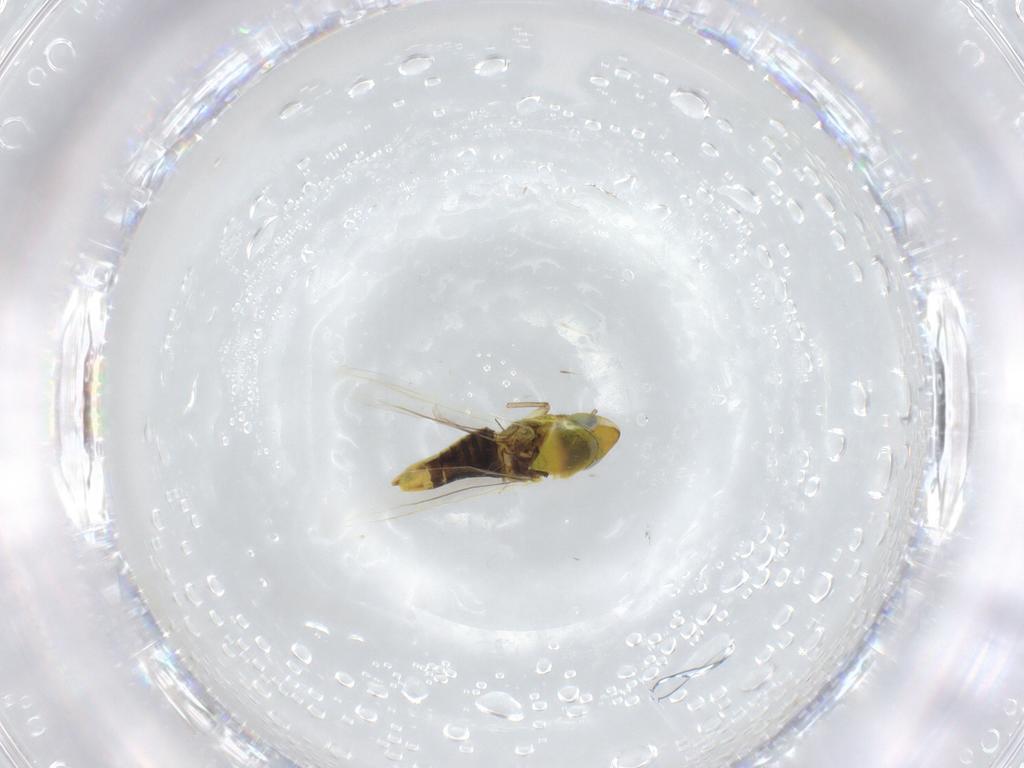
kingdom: Animalia
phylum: Arthropoda
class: Insecta
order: Hemiptera
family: Cicadellidae
